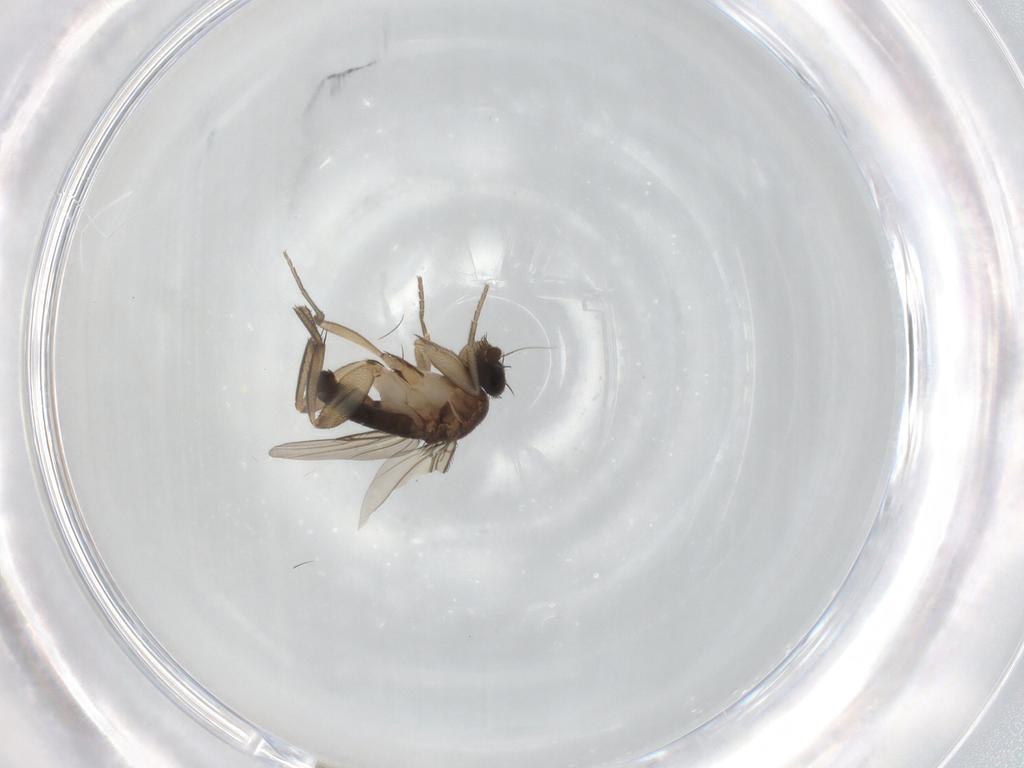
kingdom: Animalia
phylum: Arthropoda
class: Insecta
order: Diptera
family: Phoridae
